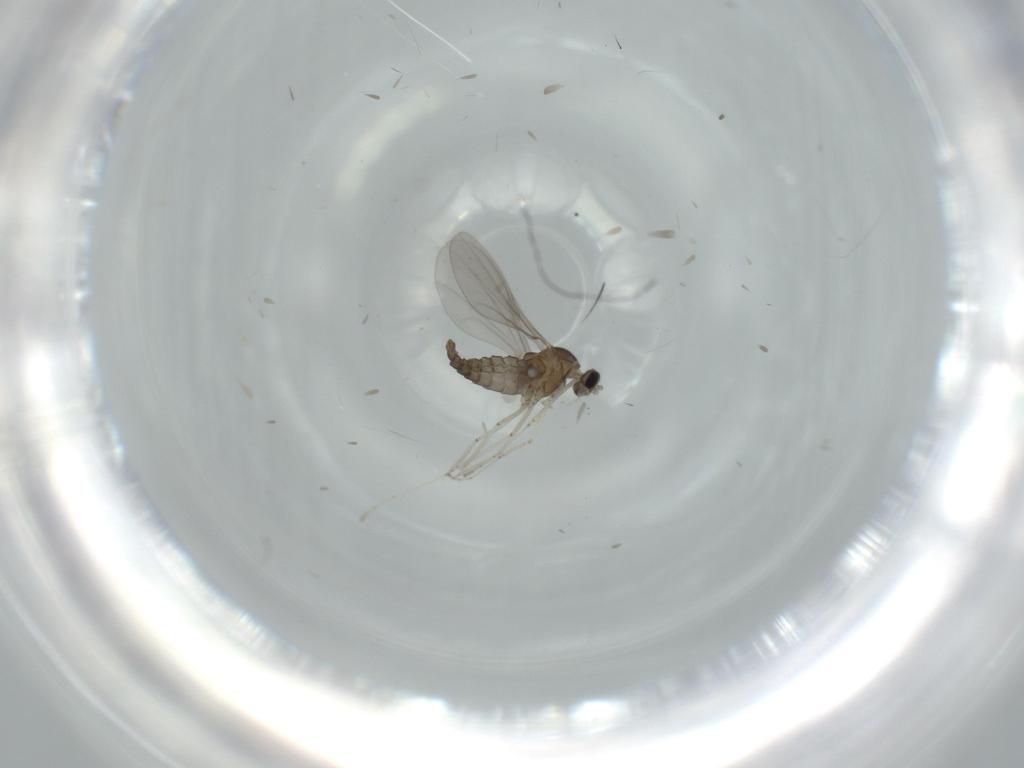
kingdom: Animalia
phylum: Arthropoda
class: Insecta
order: Diptera
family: Cecidomyiidae
